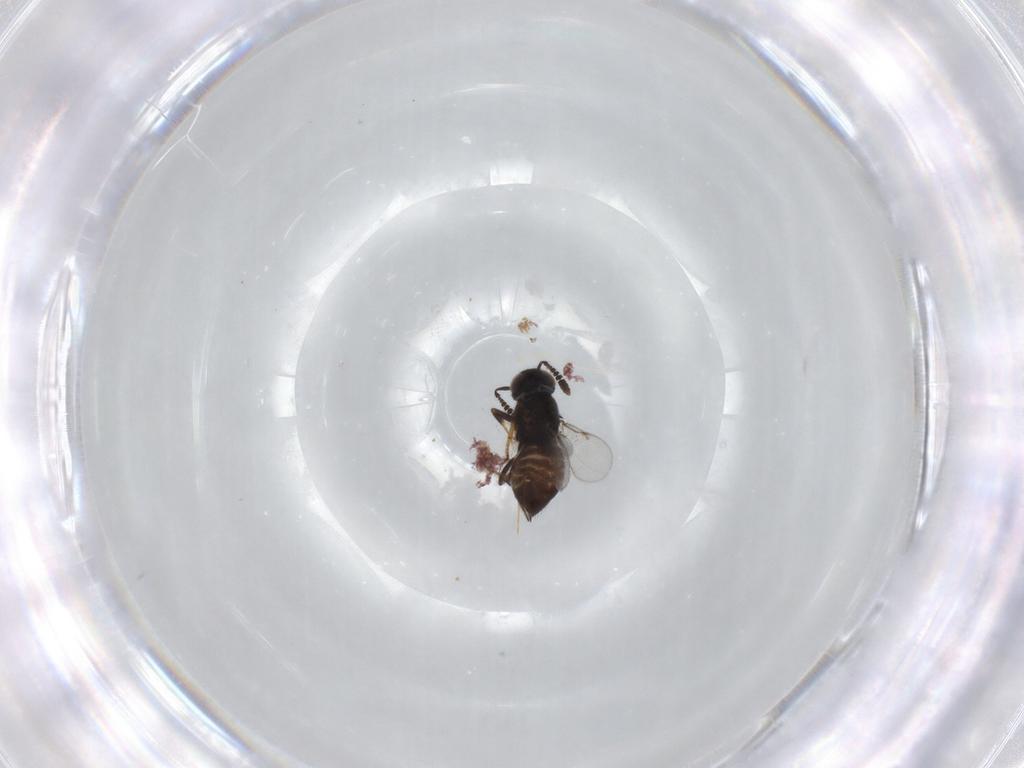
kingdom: Animalia
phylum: Arthropoda
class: Insecta
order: Hymenoptera
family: Encyrtidae
